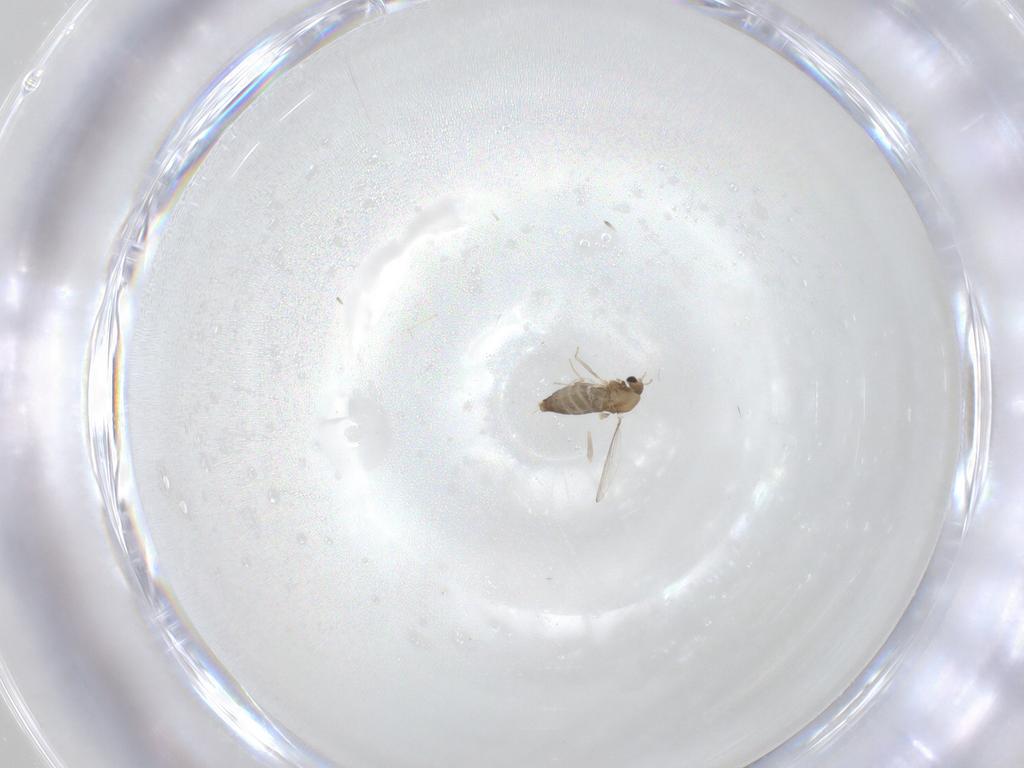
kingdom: Animalia
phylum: Arthropoda
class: Insecta
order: Diptera
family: Chironomidae
